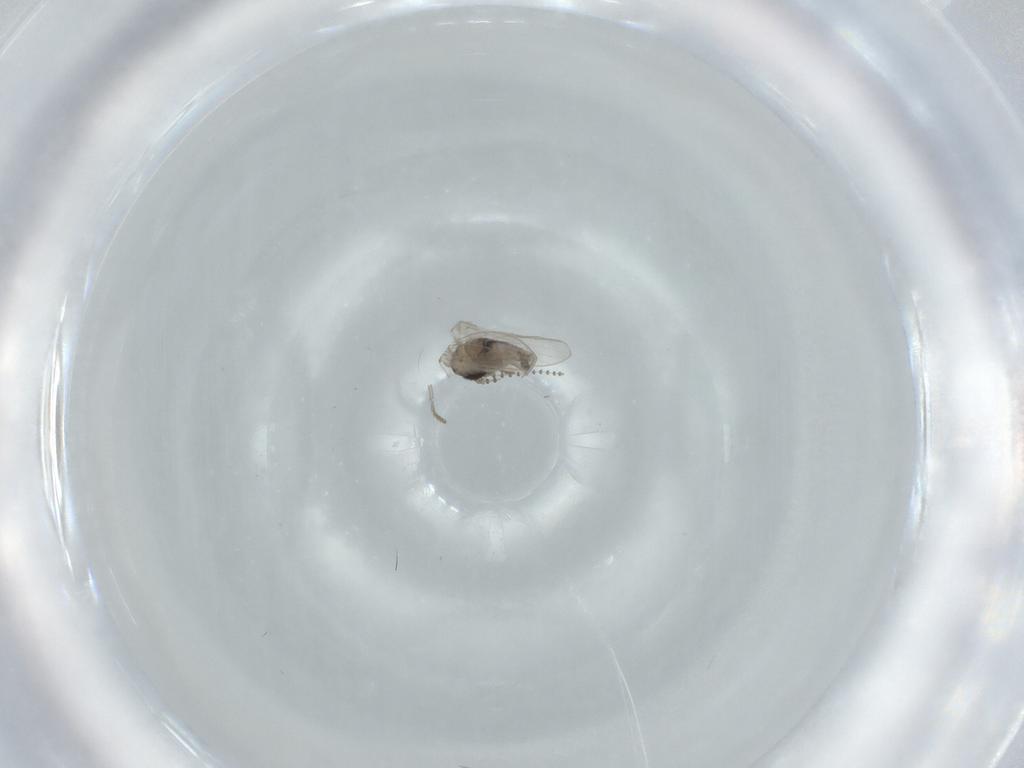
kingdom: Animalia
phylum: Arthropoda
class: Insecta
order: Diptera
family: Psychodidae
